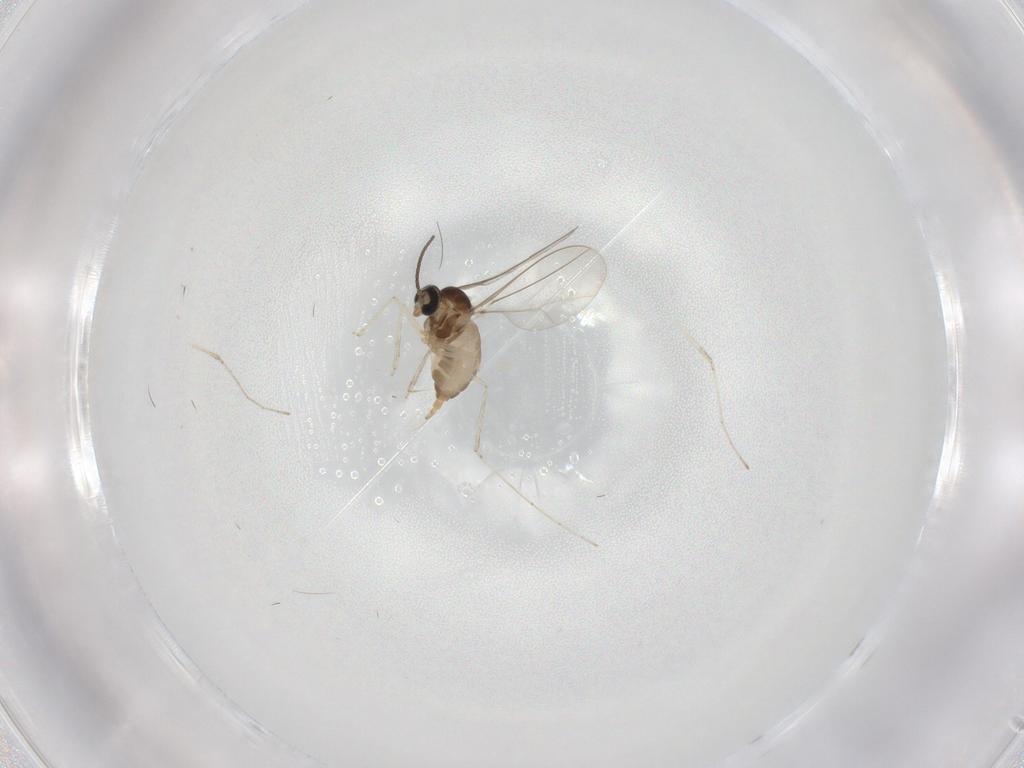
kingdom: Animalia
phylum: Arthropoda
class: Insecta
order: Diptera
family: Cecidomyiidae
